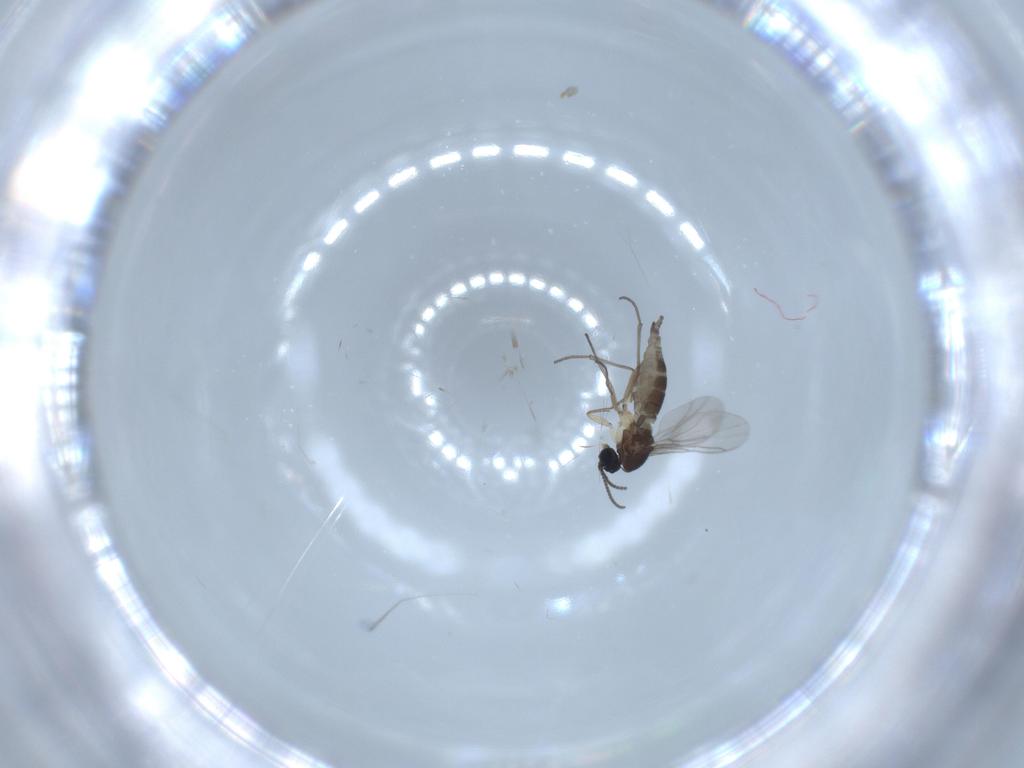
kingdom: Animalia
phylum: Arthropoda
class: Insecta
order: Diptera
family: Sciaridae
